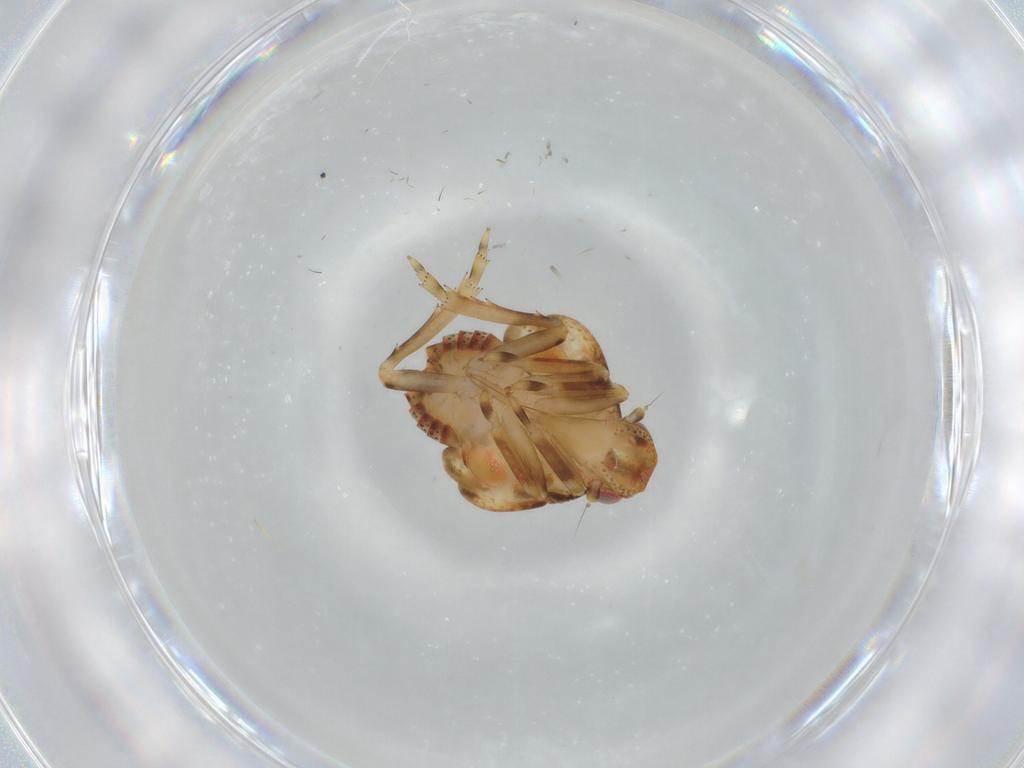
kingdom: Animalia
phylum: Arthropoda
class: Insecta
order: Hemiptera
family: Flatidae
